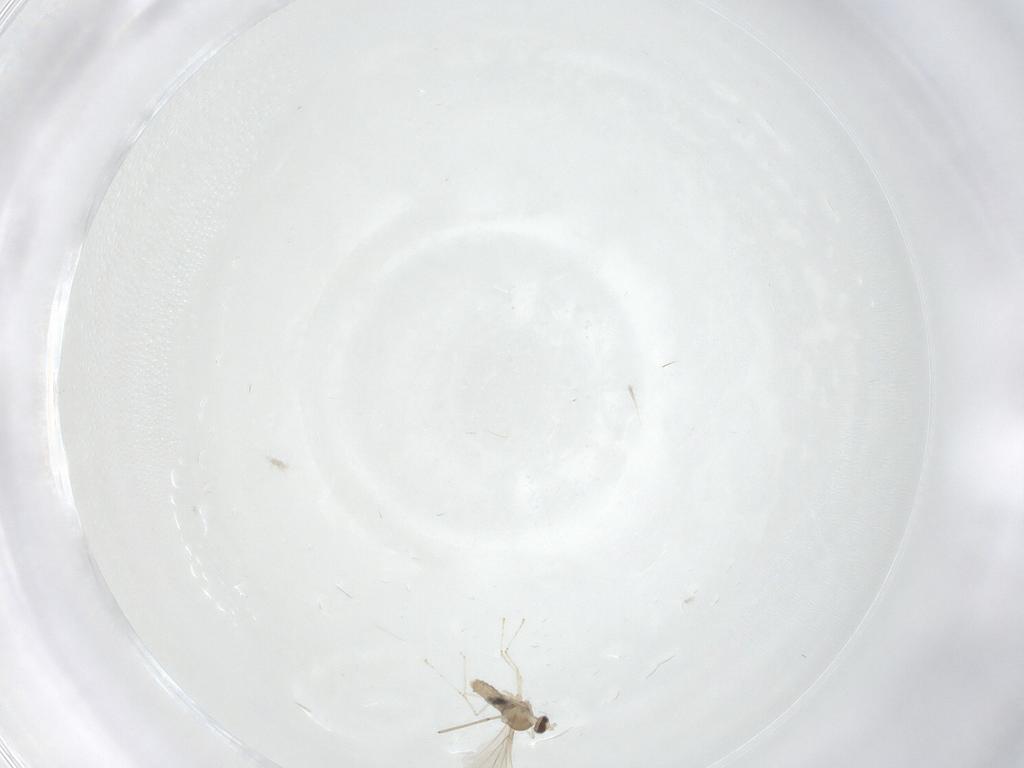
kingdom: Animalia
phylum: Arthropoda
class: Insecta
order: Diptera
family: Cecidomyiidae
